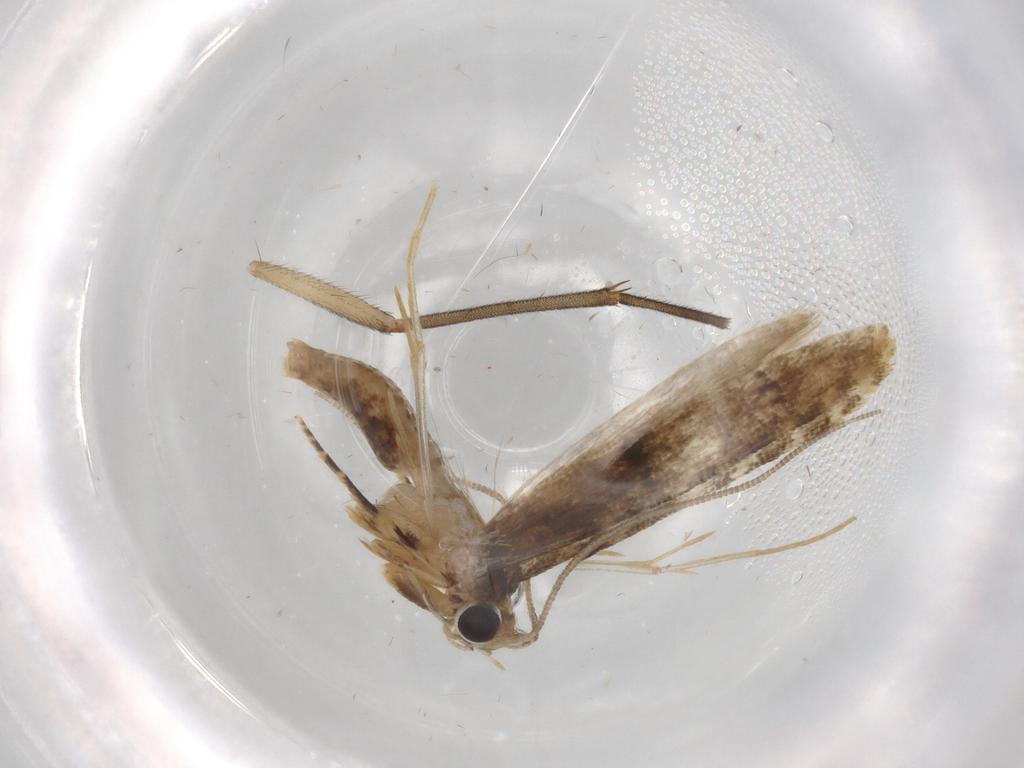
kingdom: Animalia
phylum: Arthropoda
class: Insecta
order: Lepidoptera
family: Tineidae
